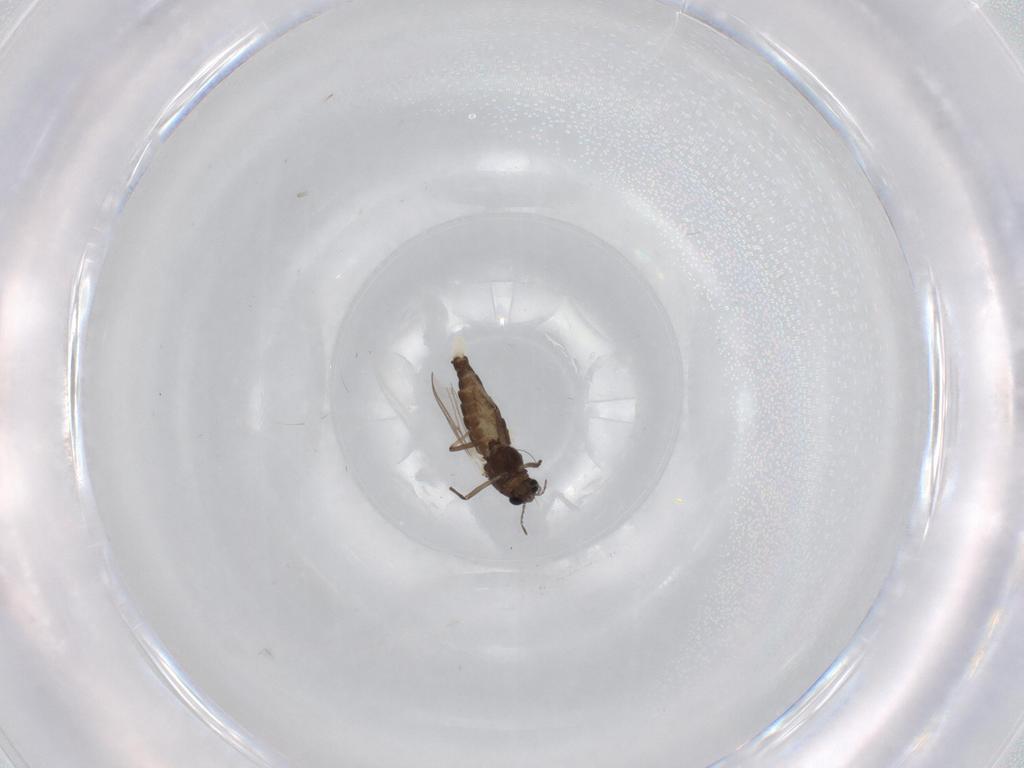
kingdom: Animalia
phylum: Arthropoda
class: Insecta
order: Diptera
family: Chironomidae
